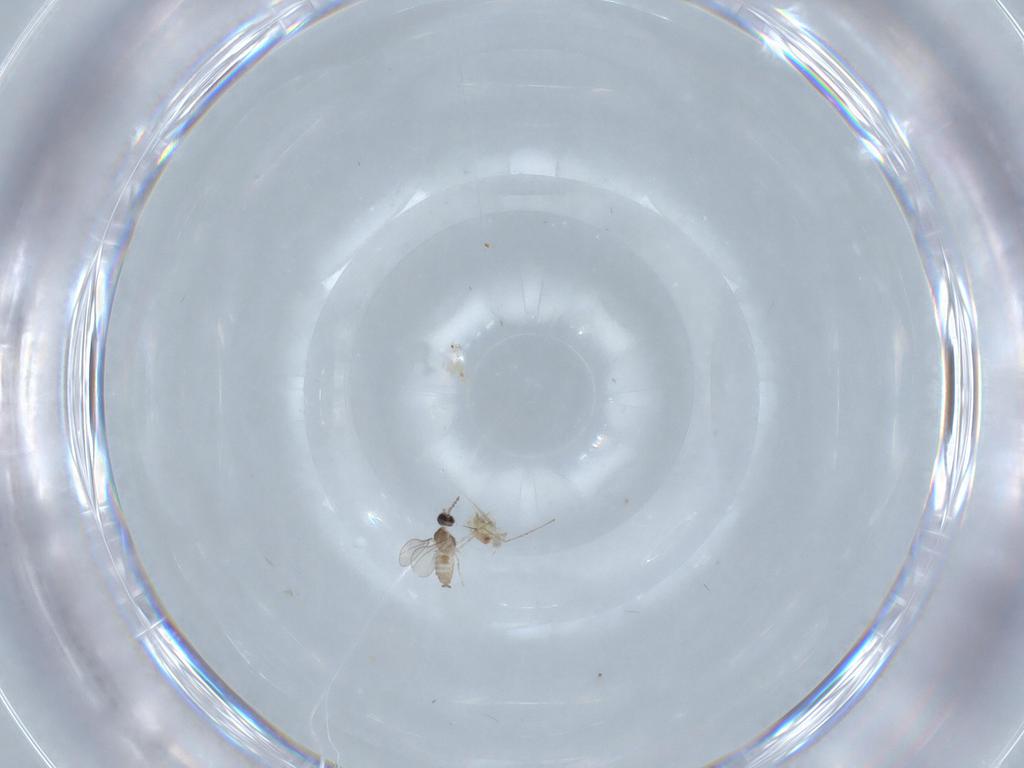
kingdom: Animalia
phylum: Arthropoda
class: Insecta
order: Diptera
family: Cecidomyiidae
